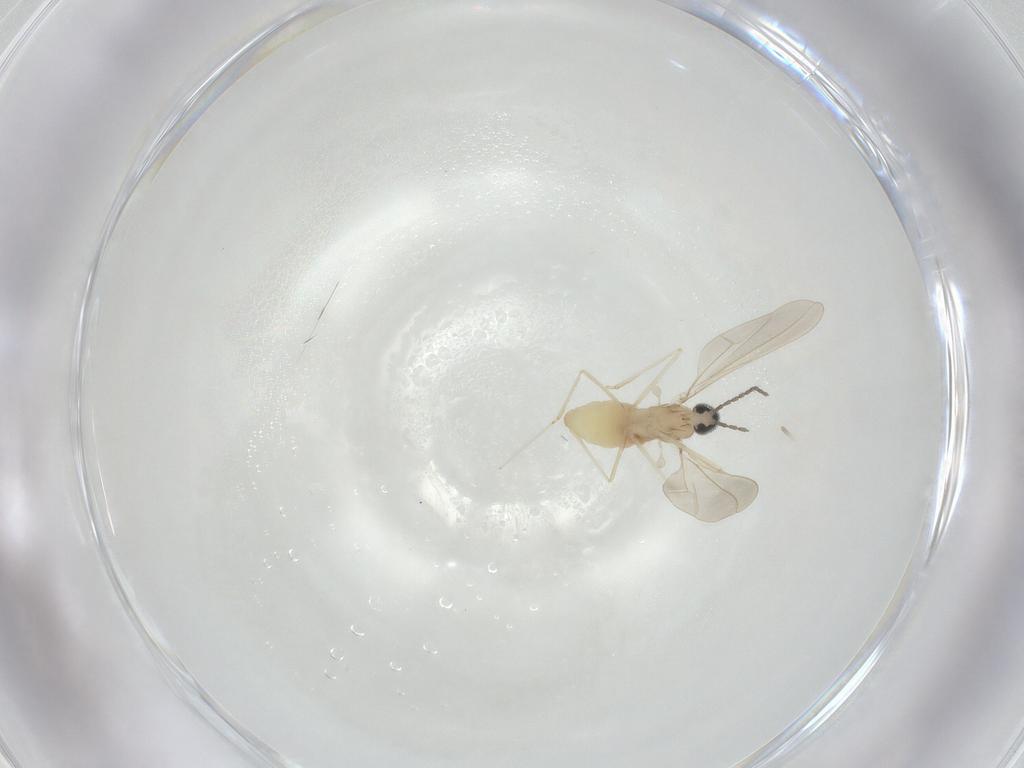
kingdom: Animalia
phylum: Arthropoda
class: Insecta
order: Diptera
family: Cecidomyiidae
